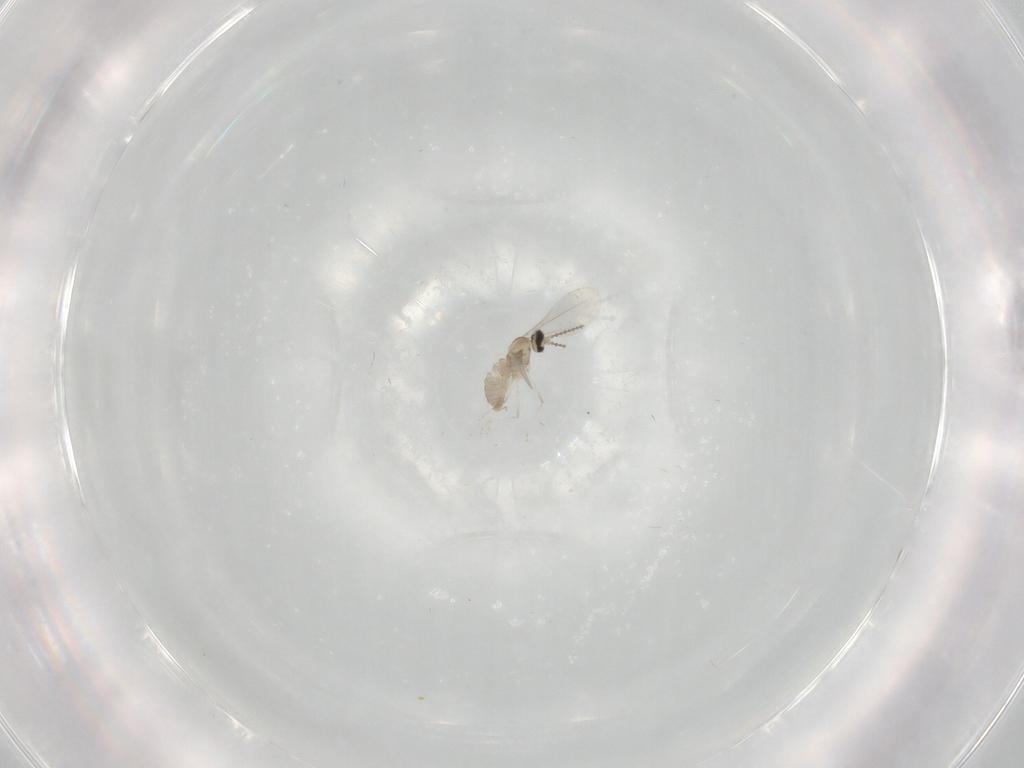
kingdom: Animalia
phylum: Arthropoda
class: Insecta
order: Diptera
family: Cecidomyiidae
